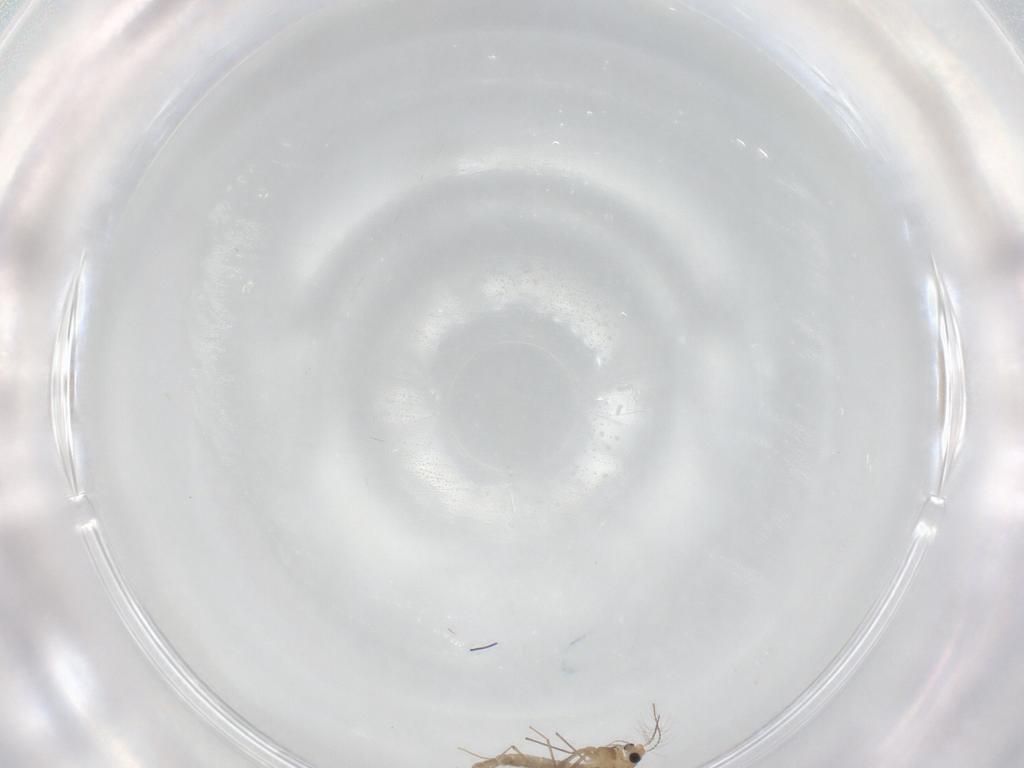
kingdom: Animalia
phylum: Arthropoda
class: Insecta
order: Diptera
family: Chironomidae
